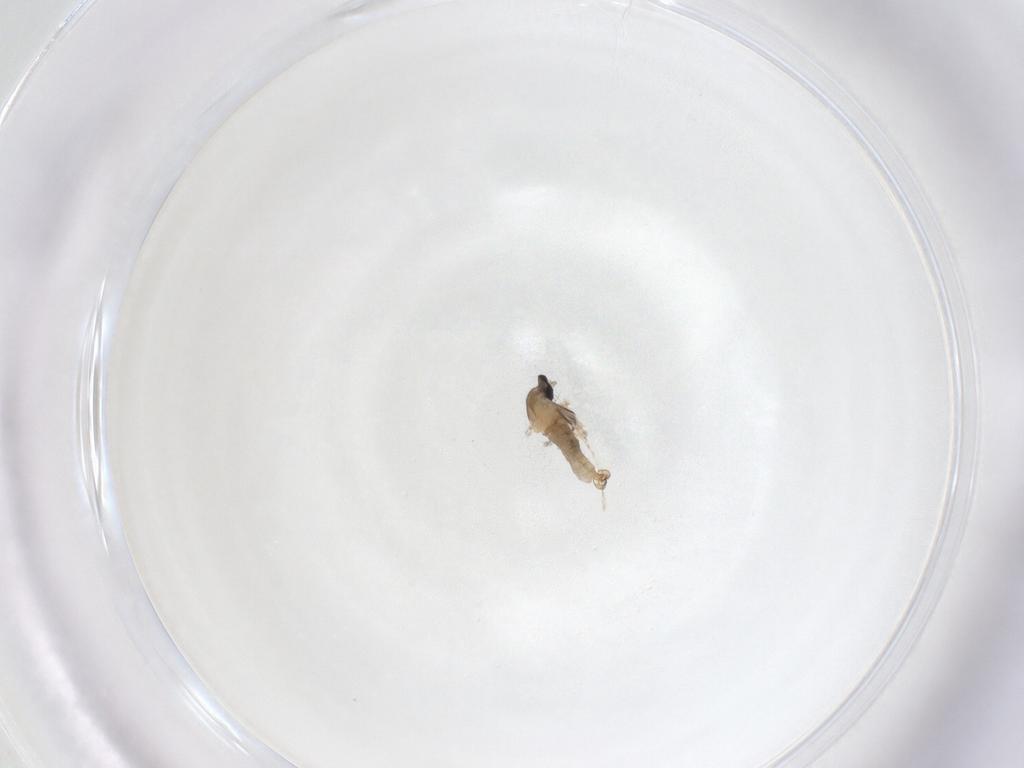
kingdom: Animalia
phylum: Arthropoda
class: Insecta
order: Diptera
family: Cecidomyiidae
